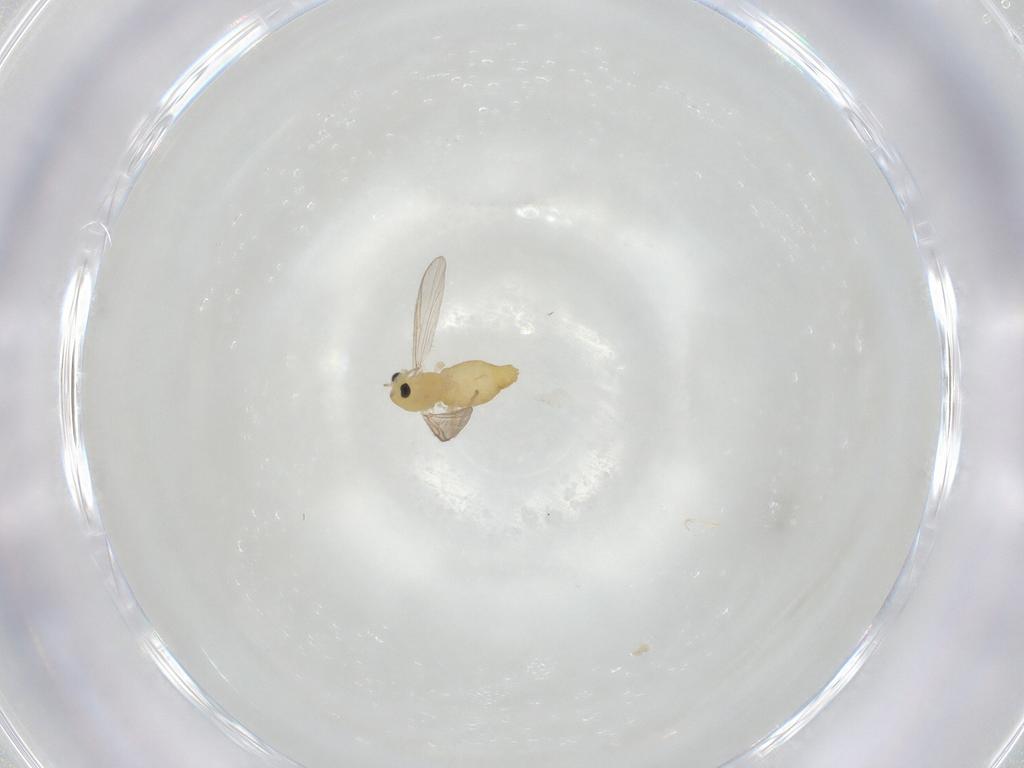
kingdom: Animalia
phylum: Arthropoda
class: Insecta
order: Diptera
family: Chironomidae
